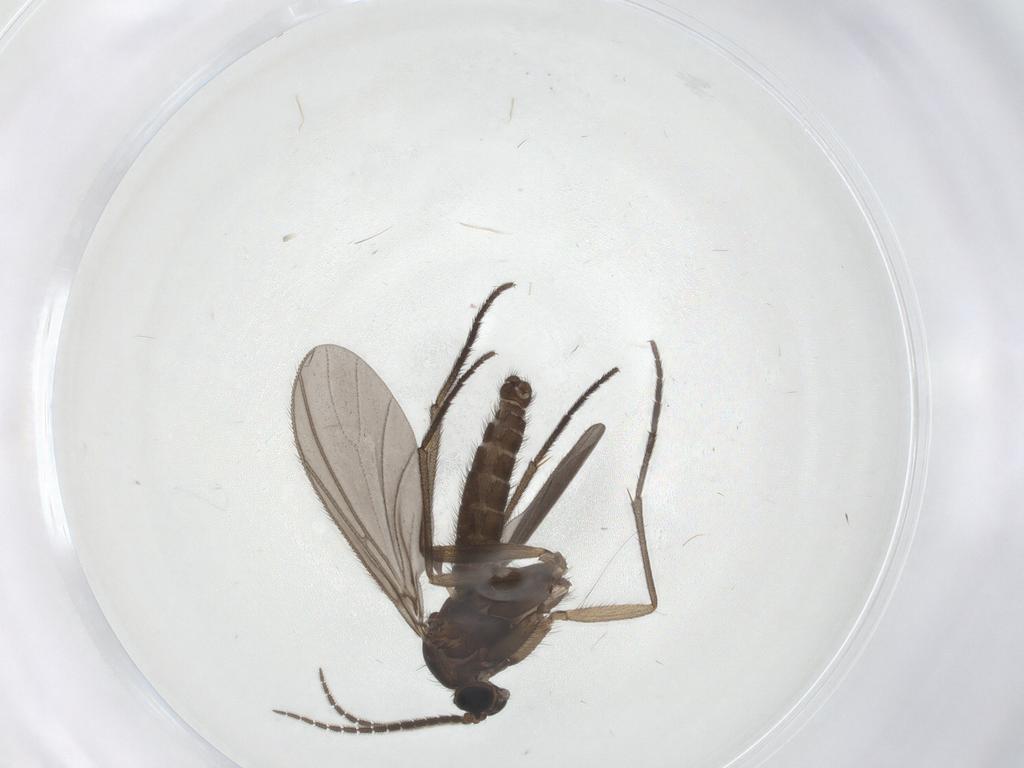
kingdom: Animalia
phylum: Arthropoda
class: Insecta
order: Diptera
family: Sciaridae
